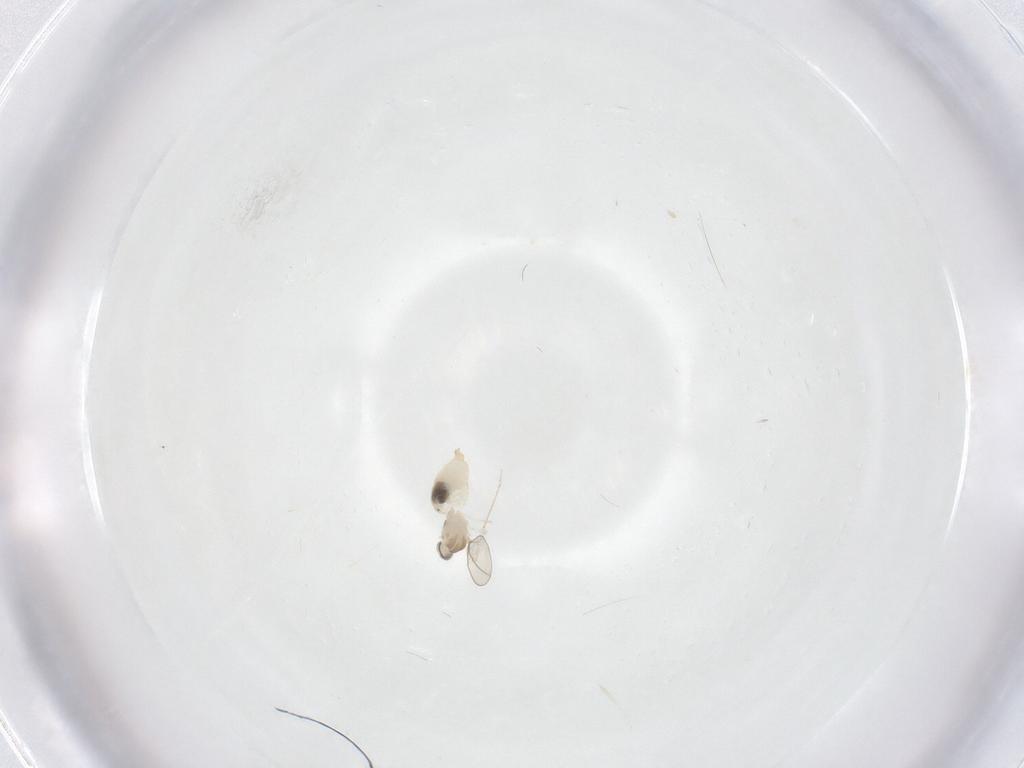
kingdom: Animalia
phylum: Arthropoda
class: Insecta
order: Diptera
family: Cecidomyiidae
